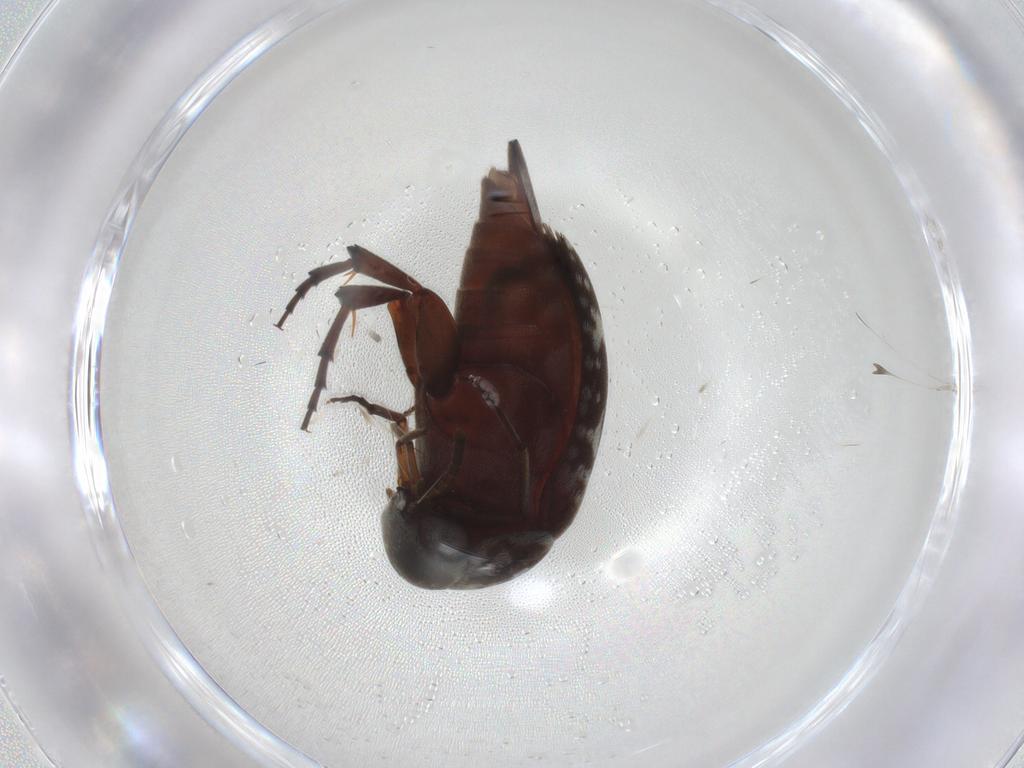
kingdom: Animalia
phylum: Arthropoda
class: Insecta
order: Coleoptera
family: Mordellidae
